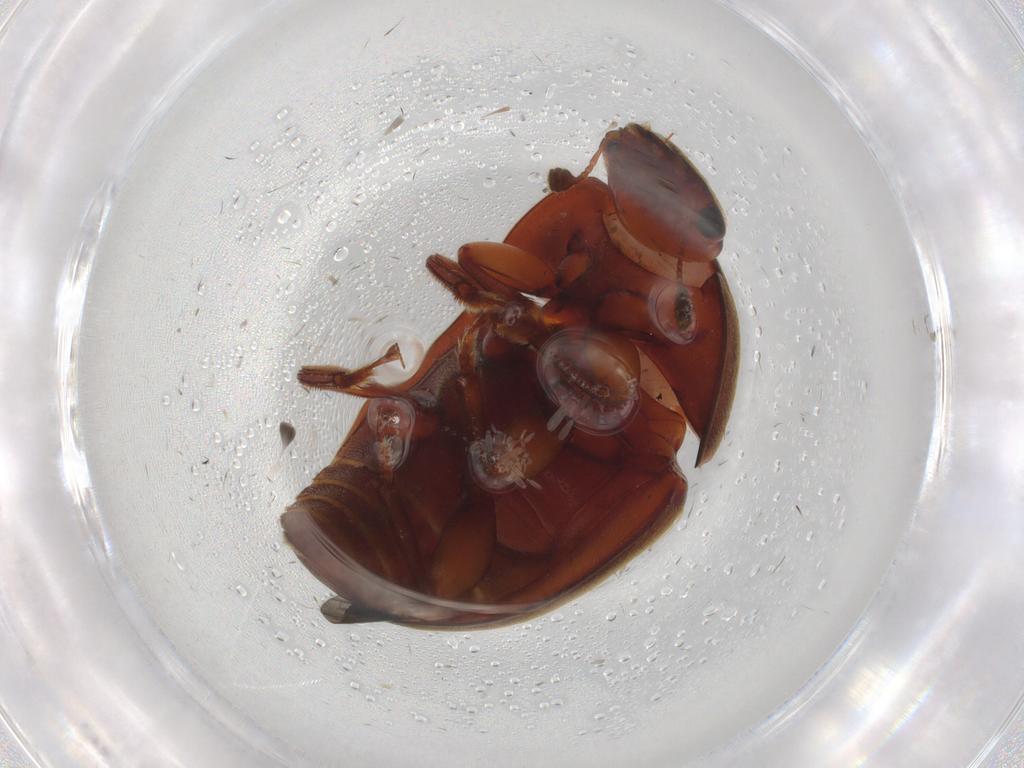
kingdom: Animalia
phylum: Arthropoda
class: Insecta
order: Coleoptera
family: Nitidulidae
